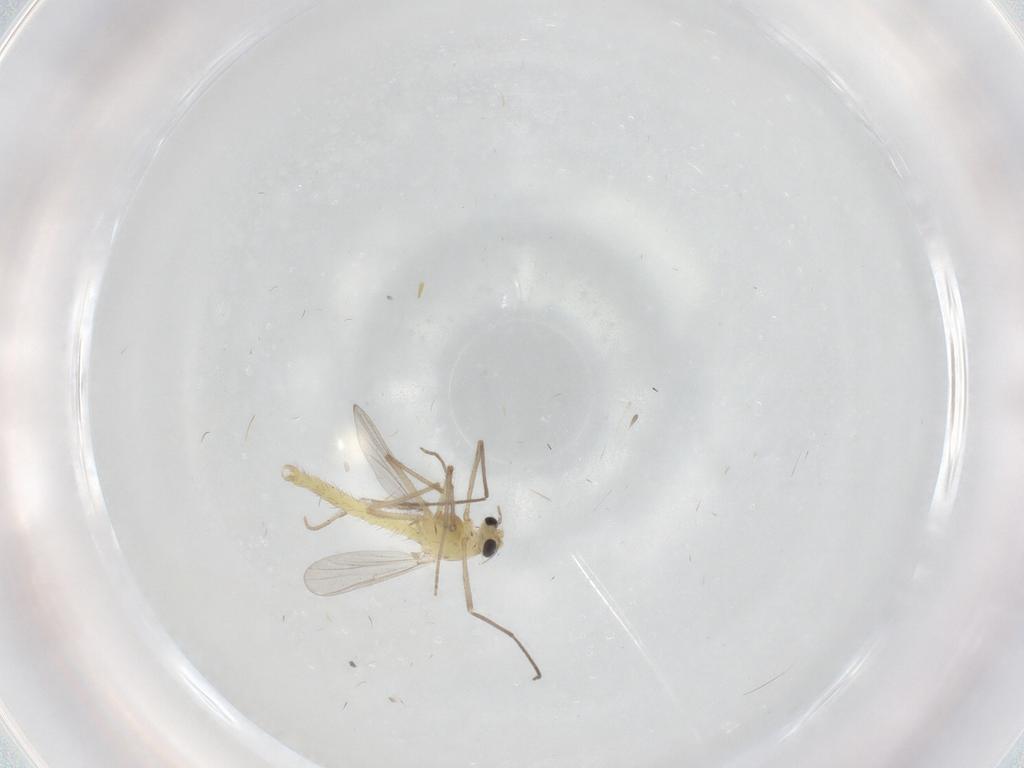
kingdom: Animalia
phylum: Arthropoda
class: Insecta
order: Diptera
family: Chironomidae
